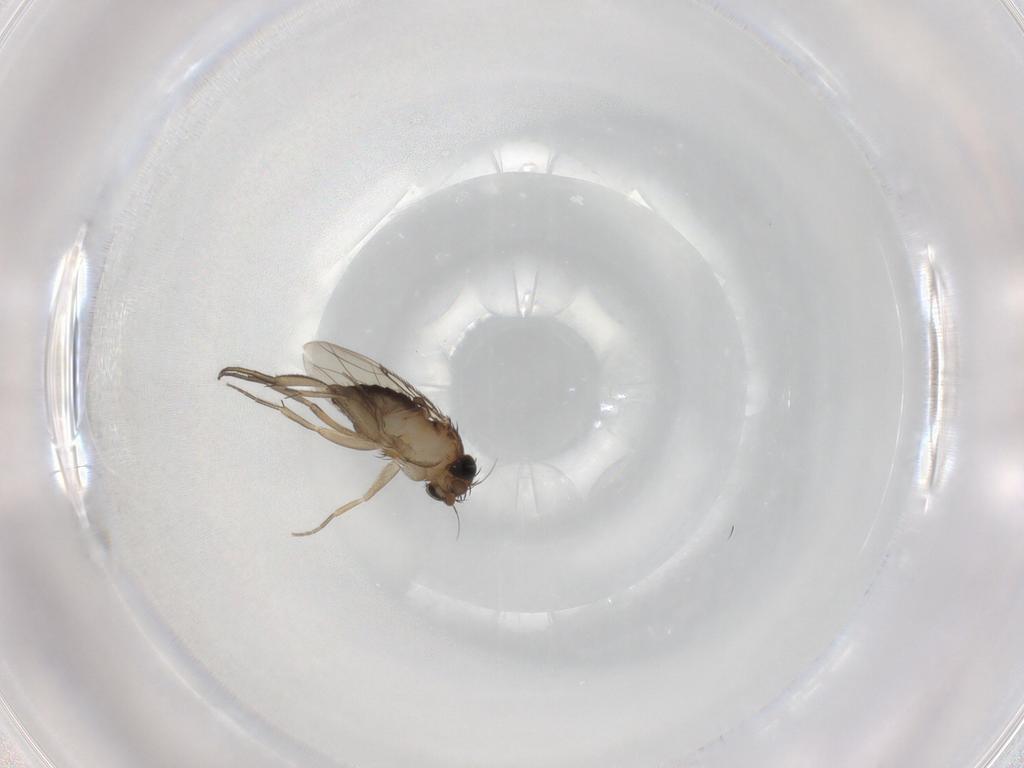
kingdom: Animalia
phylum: Arthropoda
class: Insecta
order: Diptera
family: Phoridae
